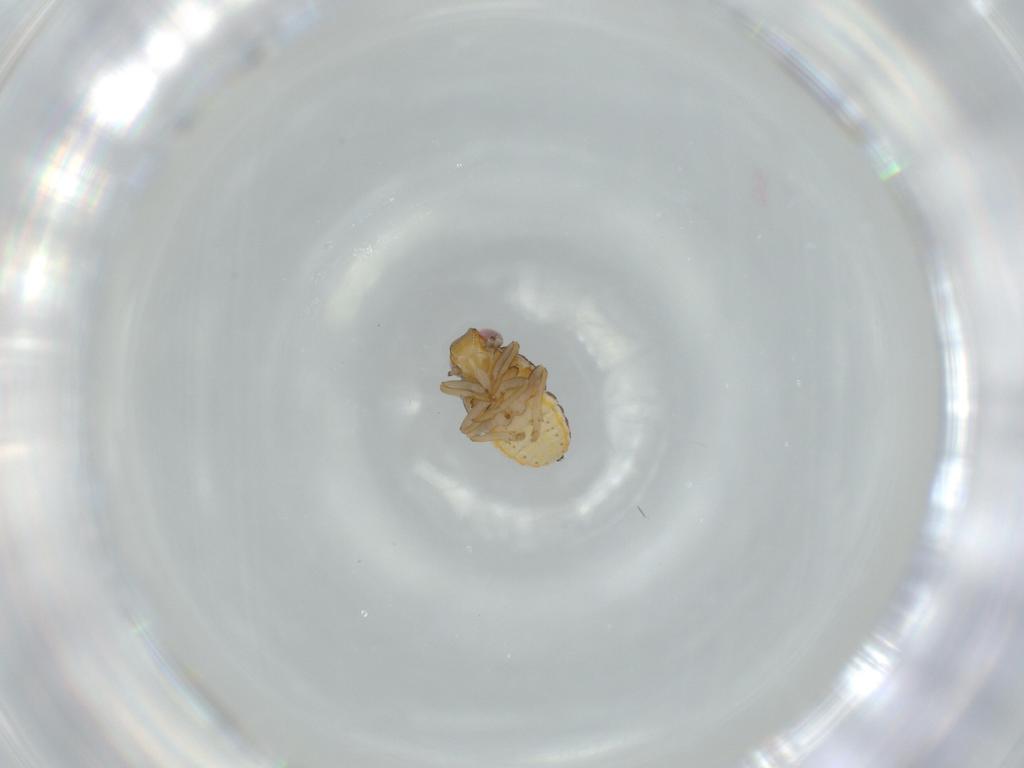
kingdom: Animalia
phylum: Arthropoda
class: Insecta
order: Hemiptera
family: Issidae
